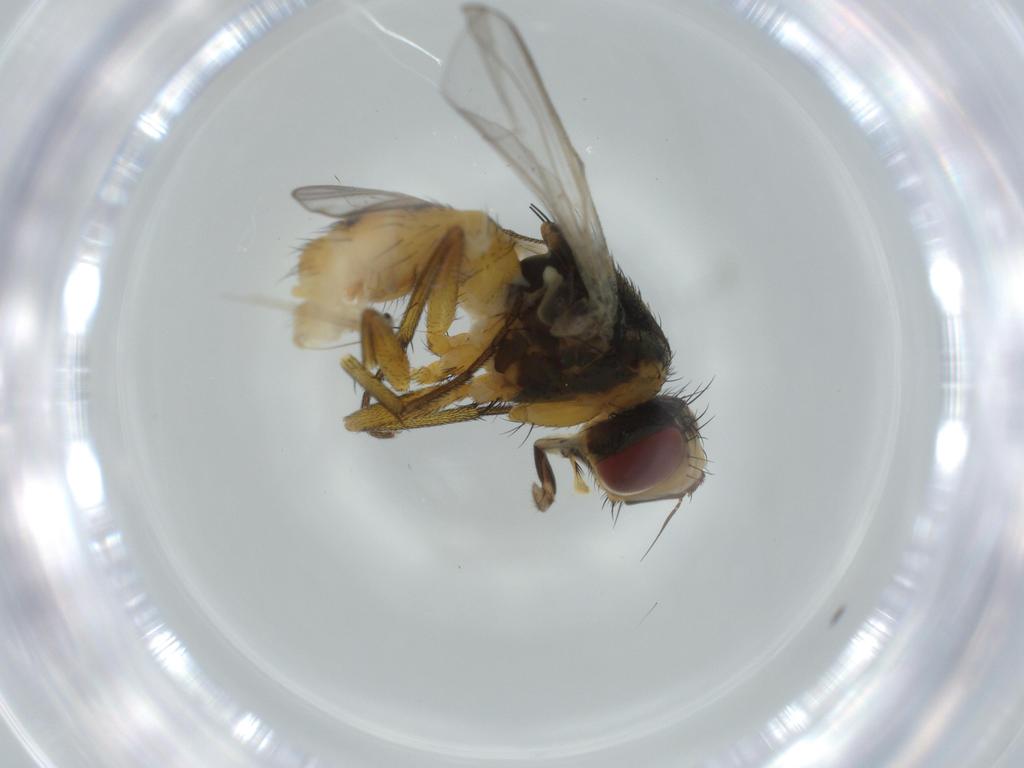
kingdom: Animalia
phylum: Arthropoda
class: Insecta
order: Diptera
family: Muscidae
